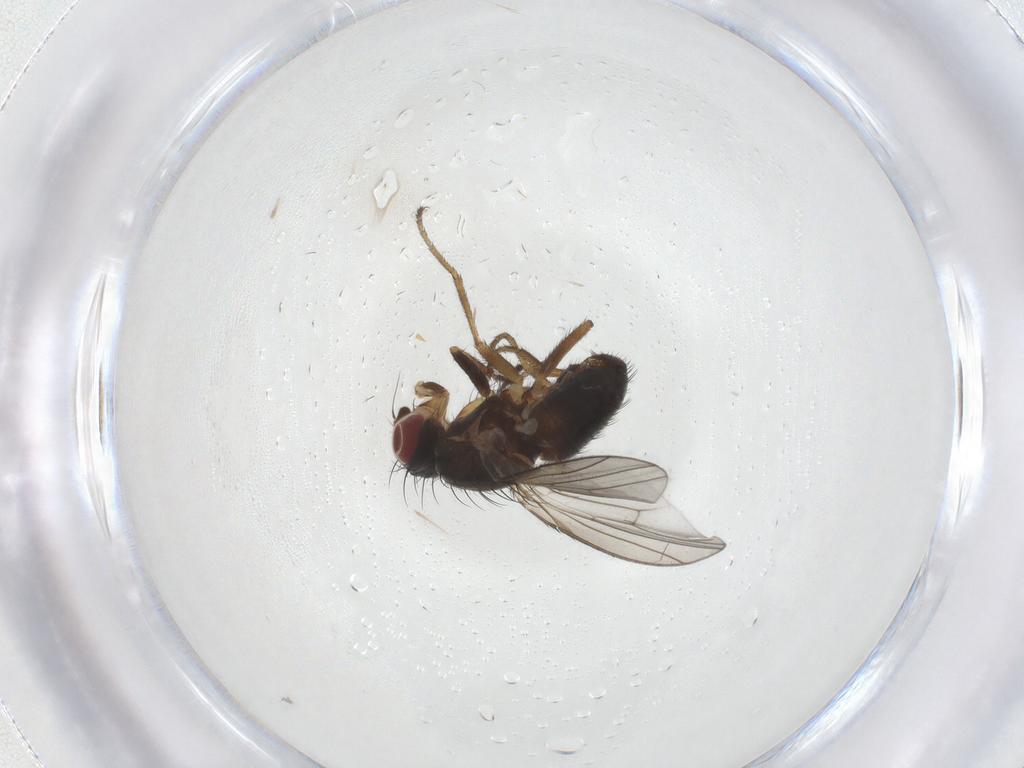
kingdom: Animalia
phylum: Arthropoda
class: Insecta
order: Diptera
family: Heleomyzidae
